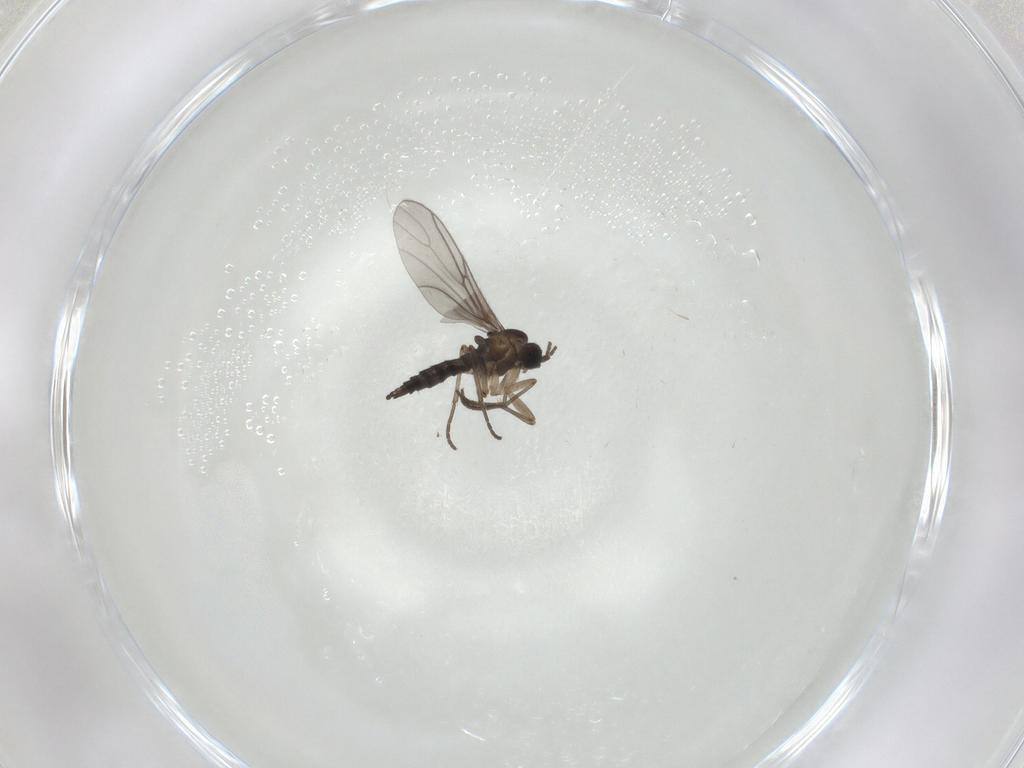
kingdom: Animalia
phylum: Arthropoda
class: Insecta
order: Diptera
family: Sciaridae
